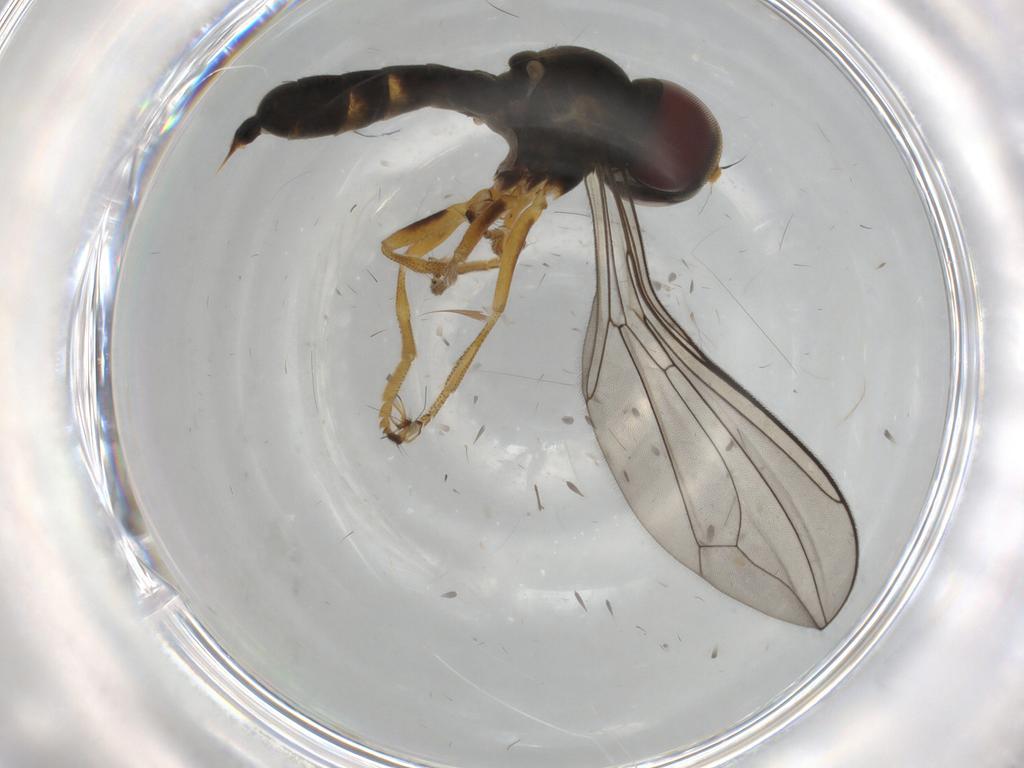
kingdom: Animalia
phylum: Arthropoda
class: Insecta
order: Diptera
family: Pipunculidae
